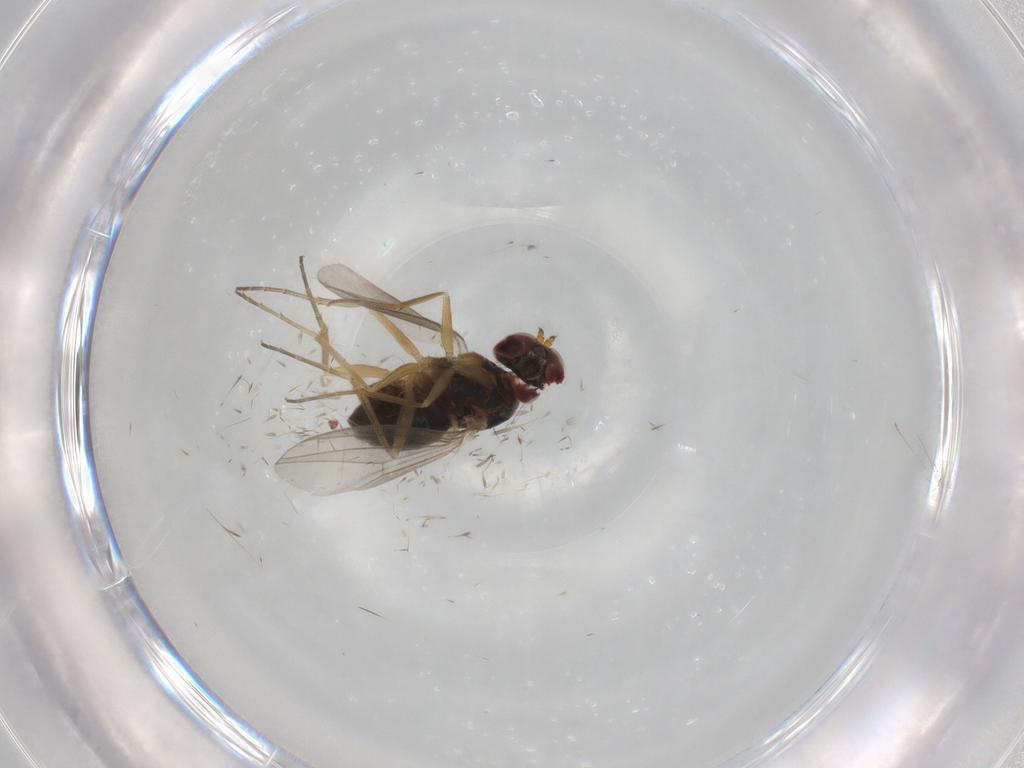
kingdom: Animalia
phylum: Arthropoda
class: Insecta
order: Diptera
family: Dolichopodidae
